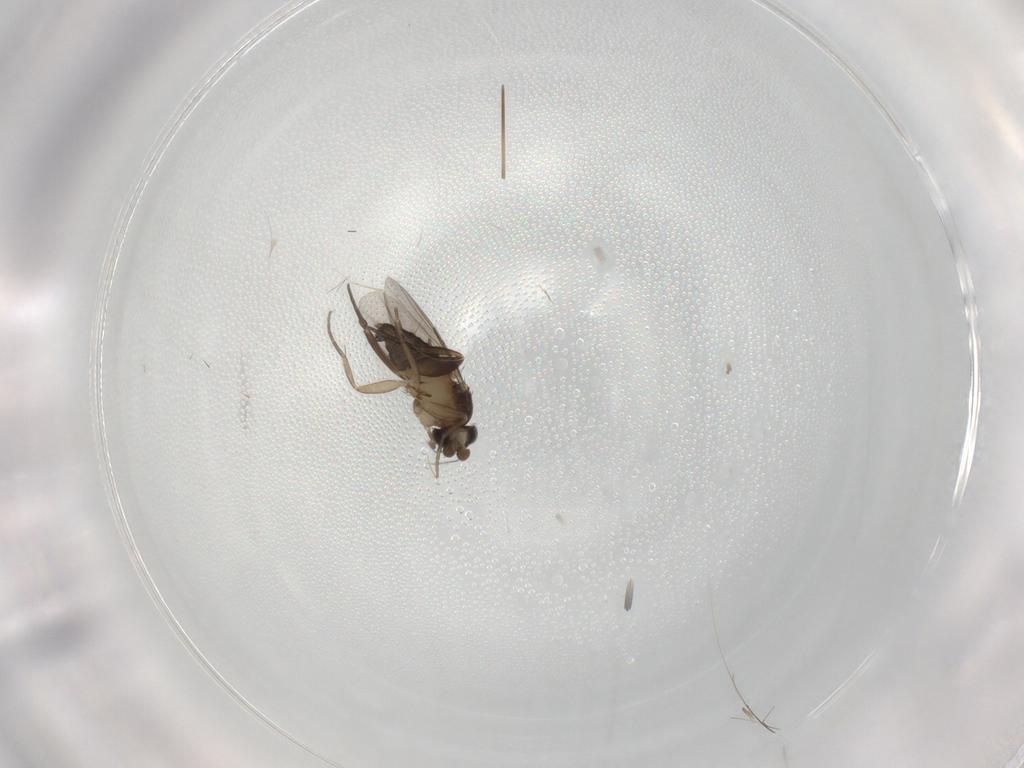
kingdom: Animalia
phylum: Arthropoda
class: Insecta
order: Diptera
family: Phoridae
